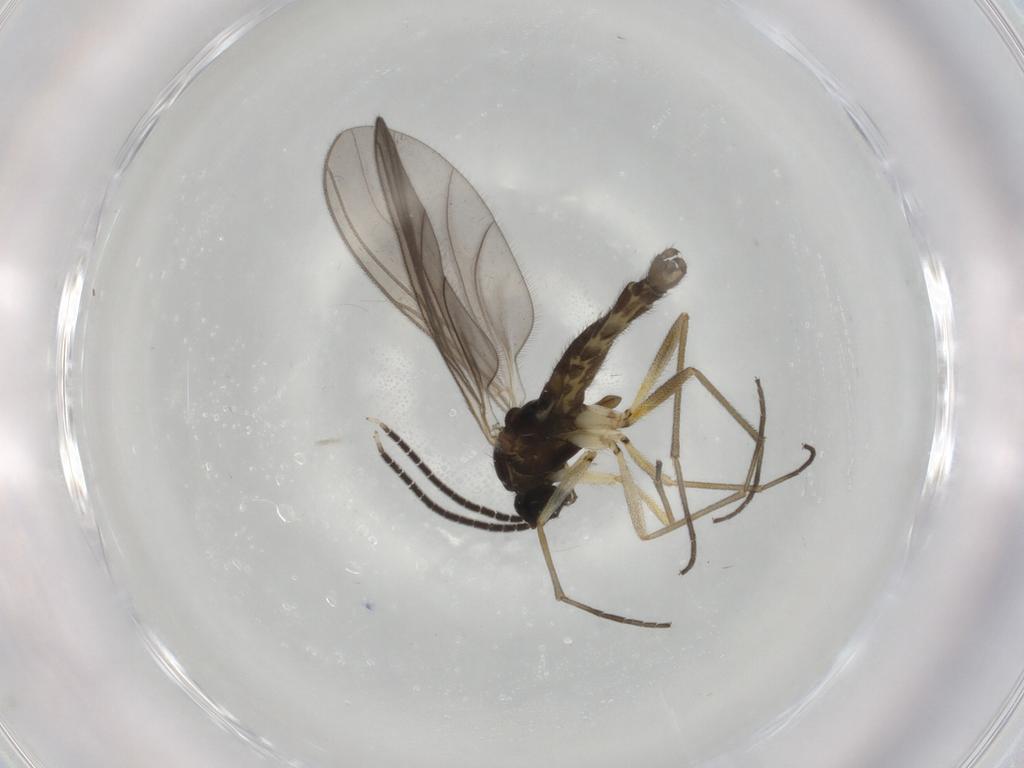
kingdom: Animalia
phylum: Arthropoda
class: Insecta
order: Diptera
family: Sciaridae
